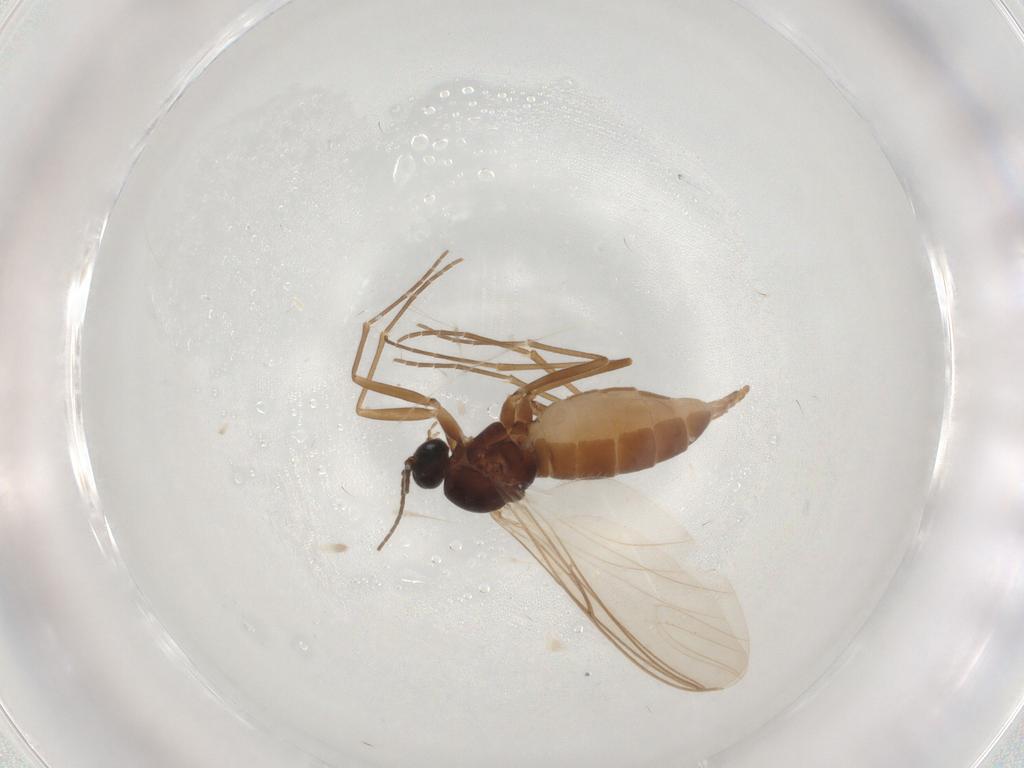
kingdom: Animalia
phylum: Arthropoda
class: Insecta
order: Diptera
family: Sciaridae
